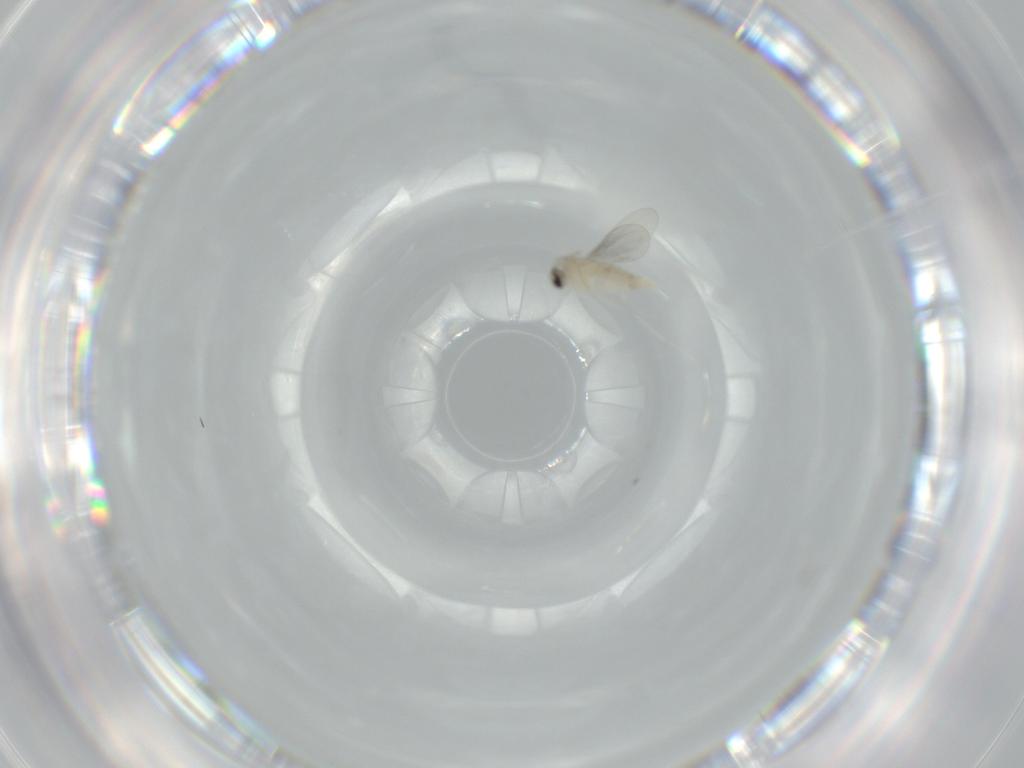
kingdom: Animalia
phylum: Arthropoda
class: Insecta
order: Diptera
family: Cecidomyiidae
